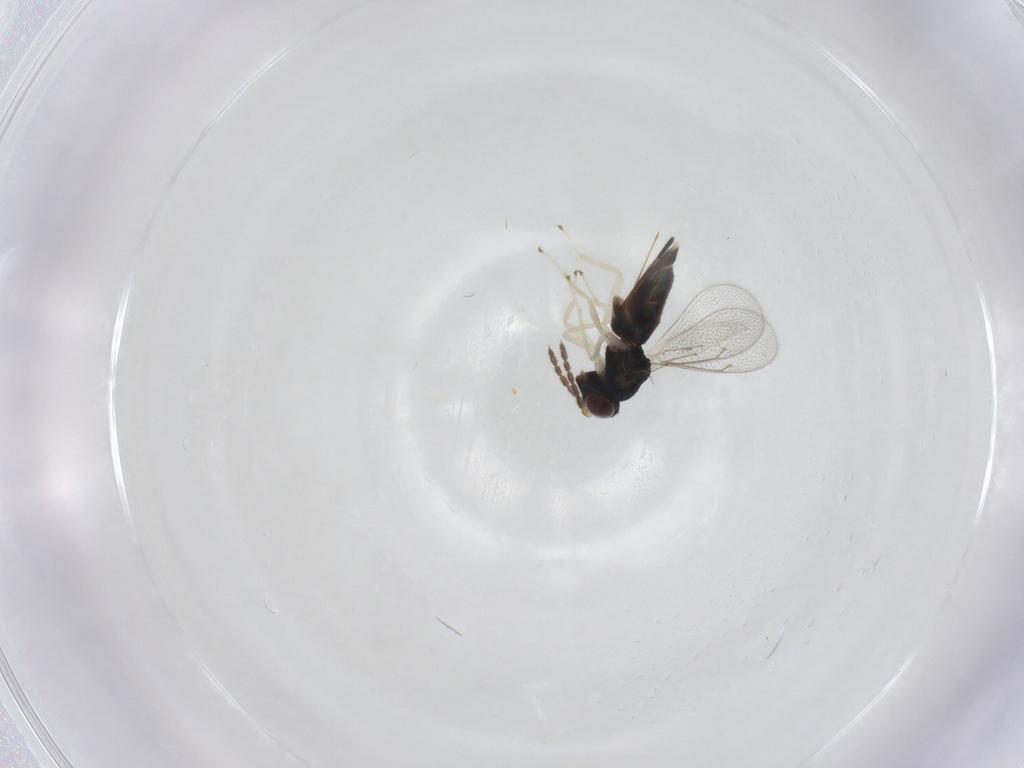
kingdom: Animalia
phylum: Arthropoda
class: Insecta
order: Hymenoptera
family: Eulophidae
